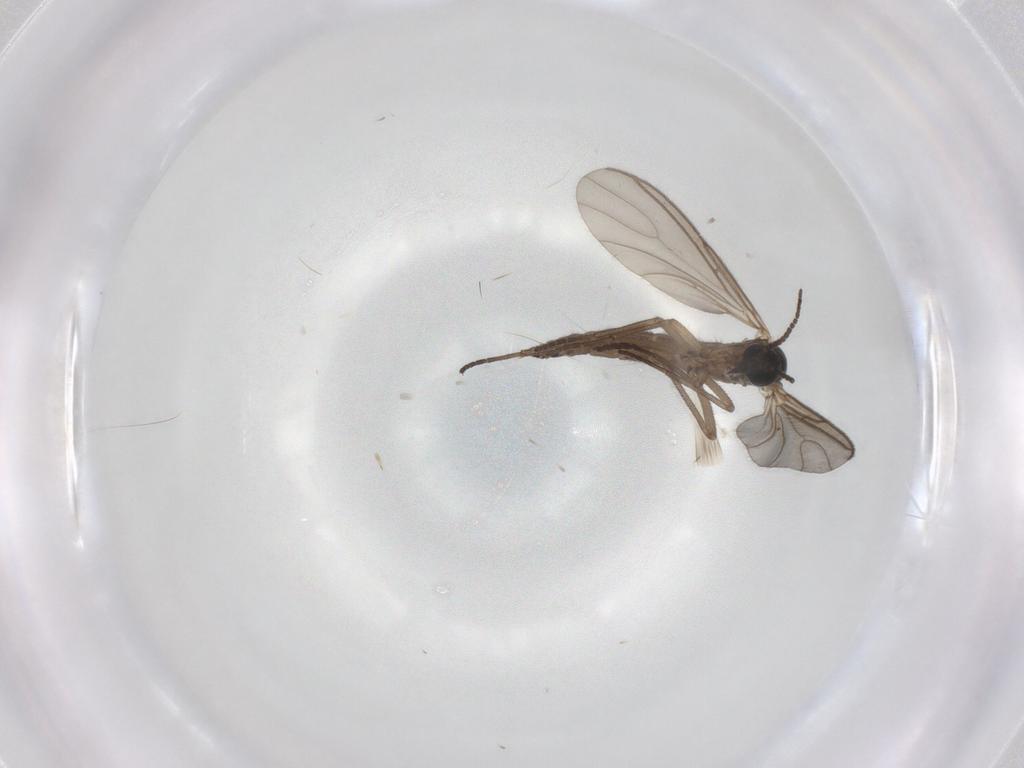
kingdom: Animalia
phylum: Arthropoda
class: Insecta
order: Diptera
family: Sciaridae
